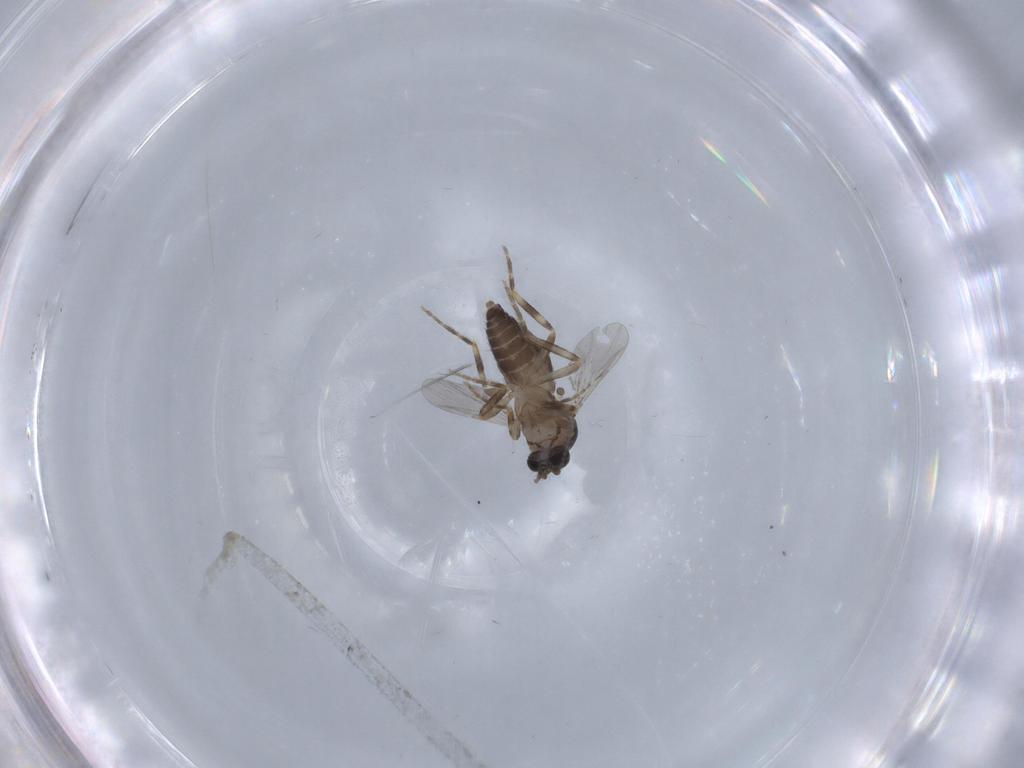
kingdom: Animalia
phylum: Arthropoda
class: Insecta
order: Diptera
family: Ceratopogonidae
